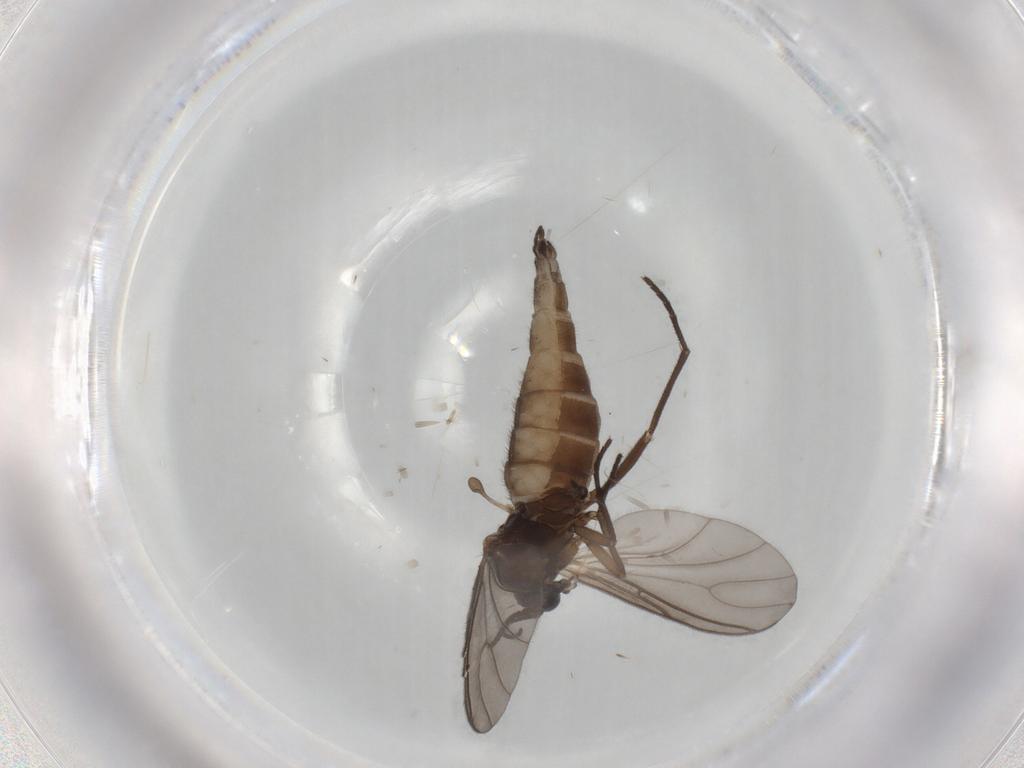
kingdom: Animalia
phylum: Arthropoda
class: Insecta
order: Diptera
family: Sciaridae
